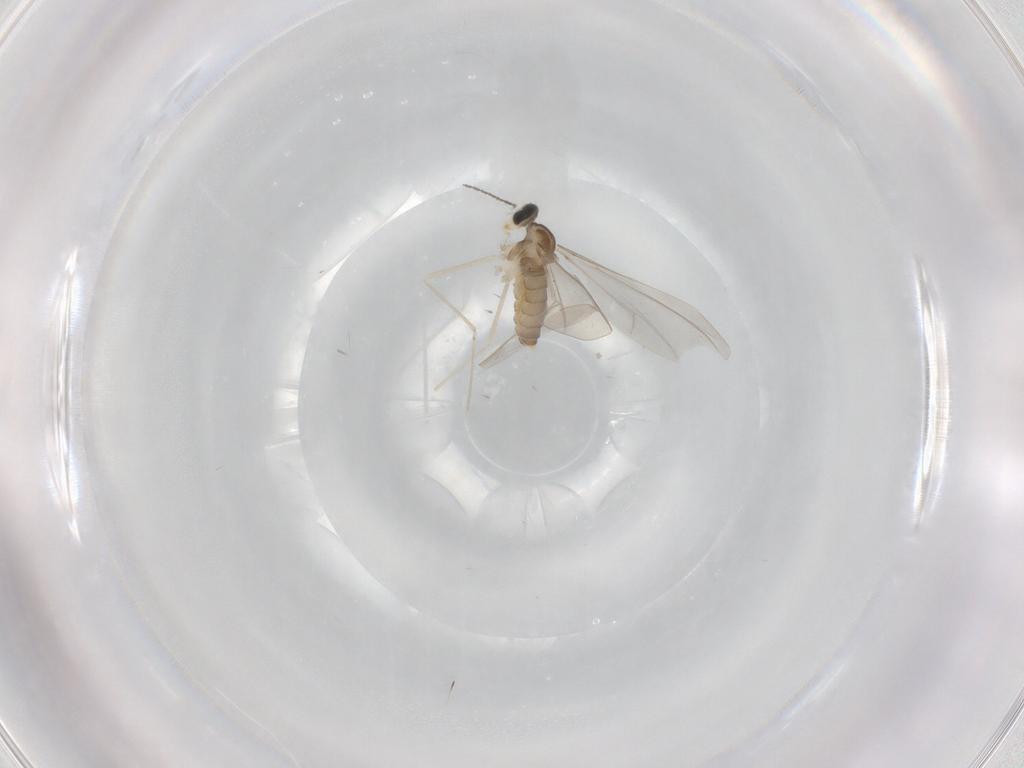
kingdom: Animalia
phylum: Arthropoda
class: Insecta
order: Diptera
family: Cecidomyiidae
